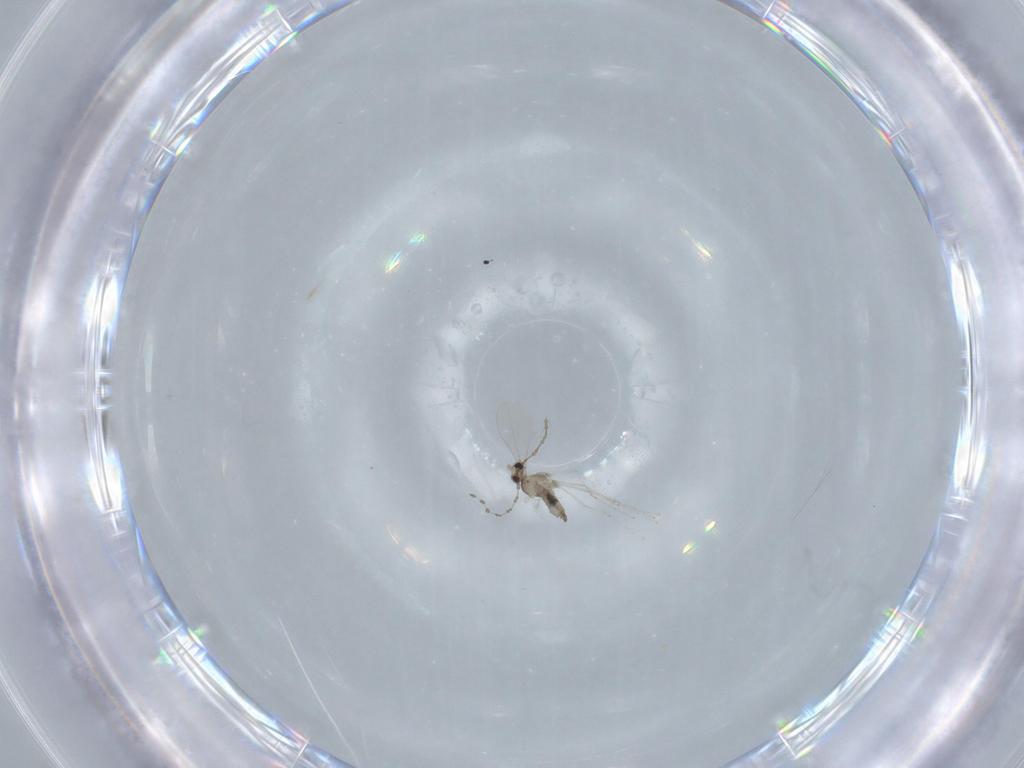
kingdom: Animalia
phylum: Arthropoda
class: Insecta
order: Diptera
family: Cecidomyiidae
